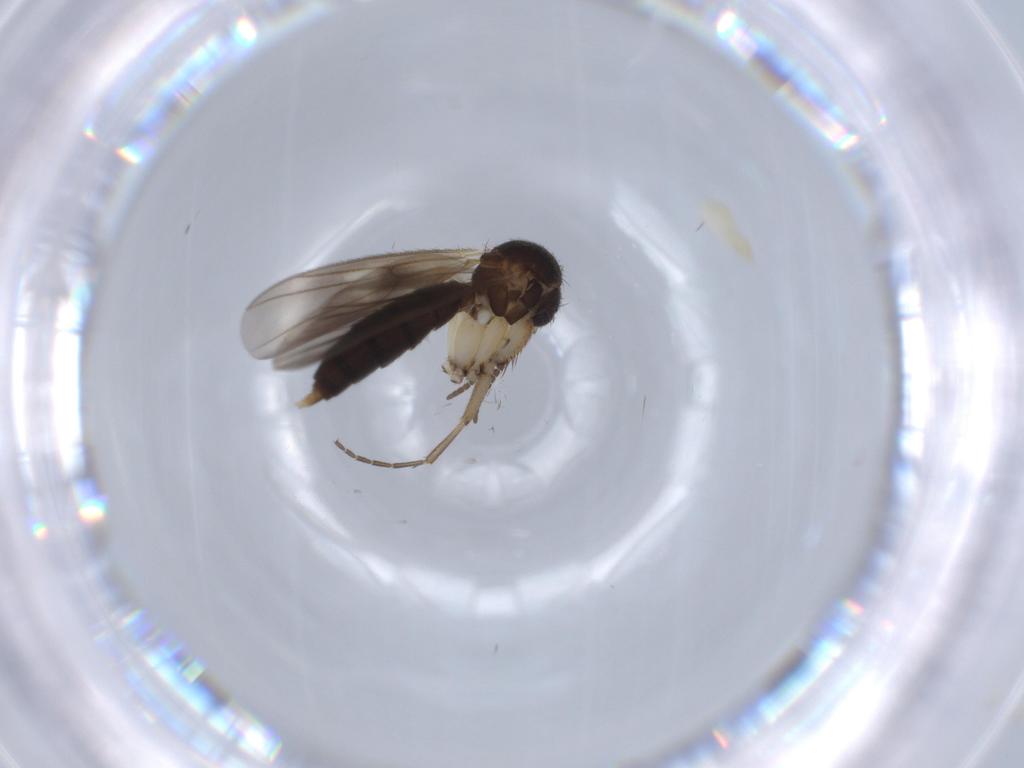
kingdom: Animalia
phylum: Arthropoda
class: Insecta
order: Diptera
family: Mycetophilidae
